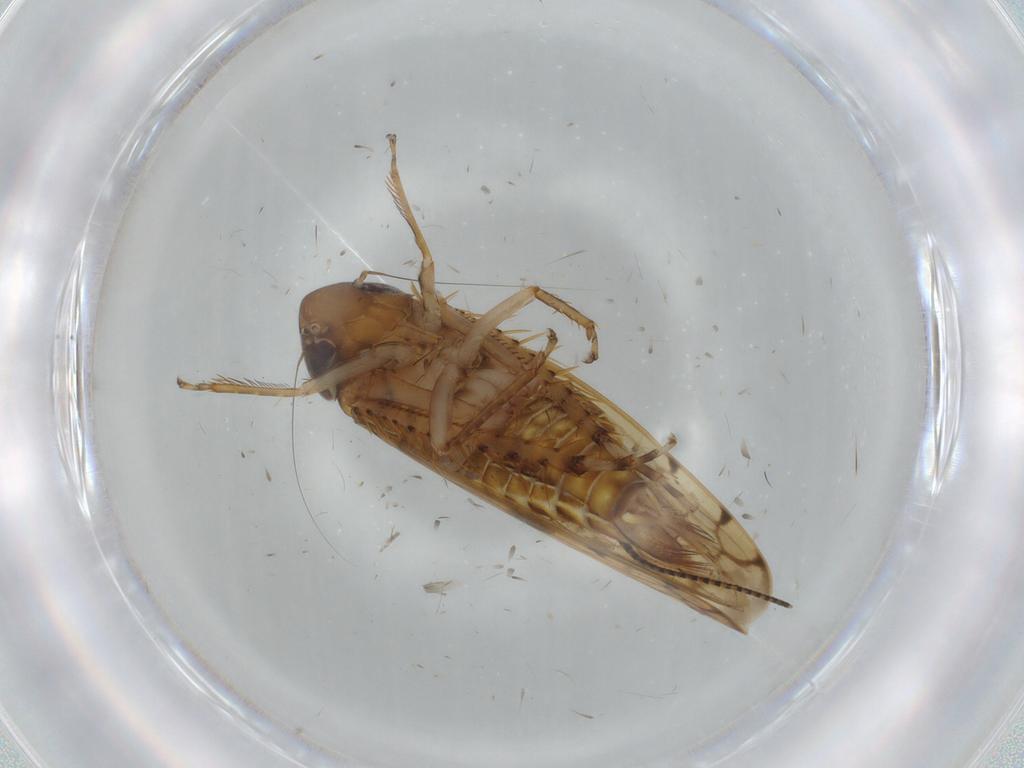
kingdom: Animalia
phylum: Arthropoda
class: Insecta
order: Hemiptera
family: Cicadellidae
